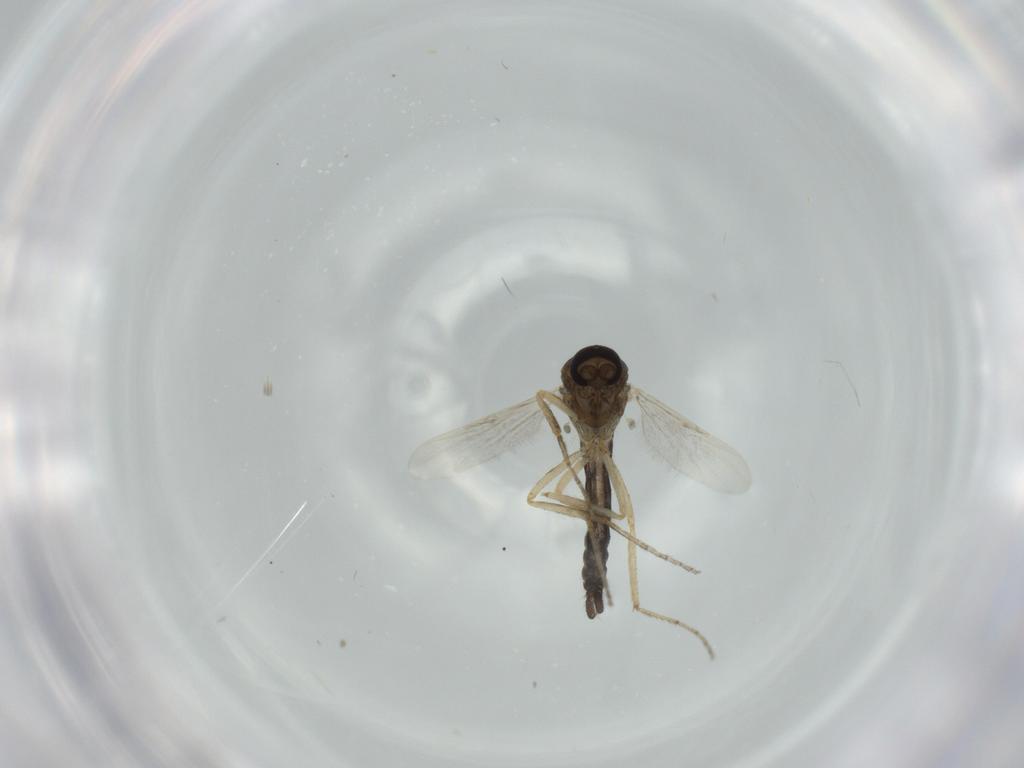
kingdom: Animalia
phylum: Arthropoda
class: Insecta
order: Diptera
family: Ceratopogonidae
